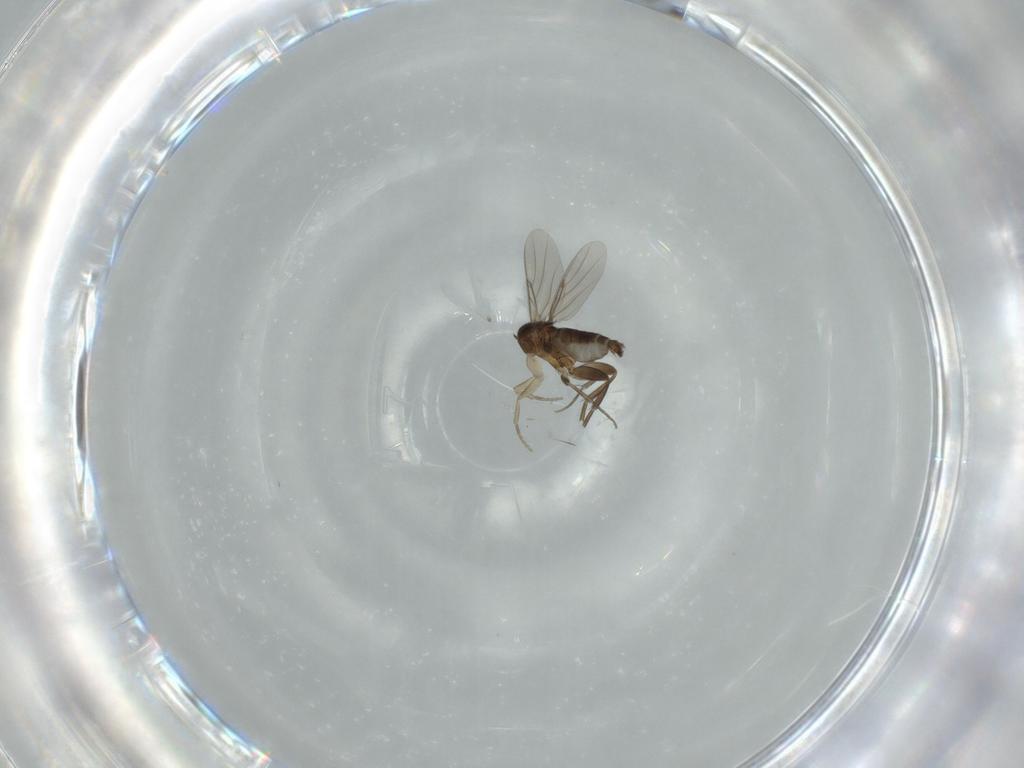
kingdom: Animalia
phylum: Arthropoda
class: Insecta
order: Diptera
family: Phoridae
